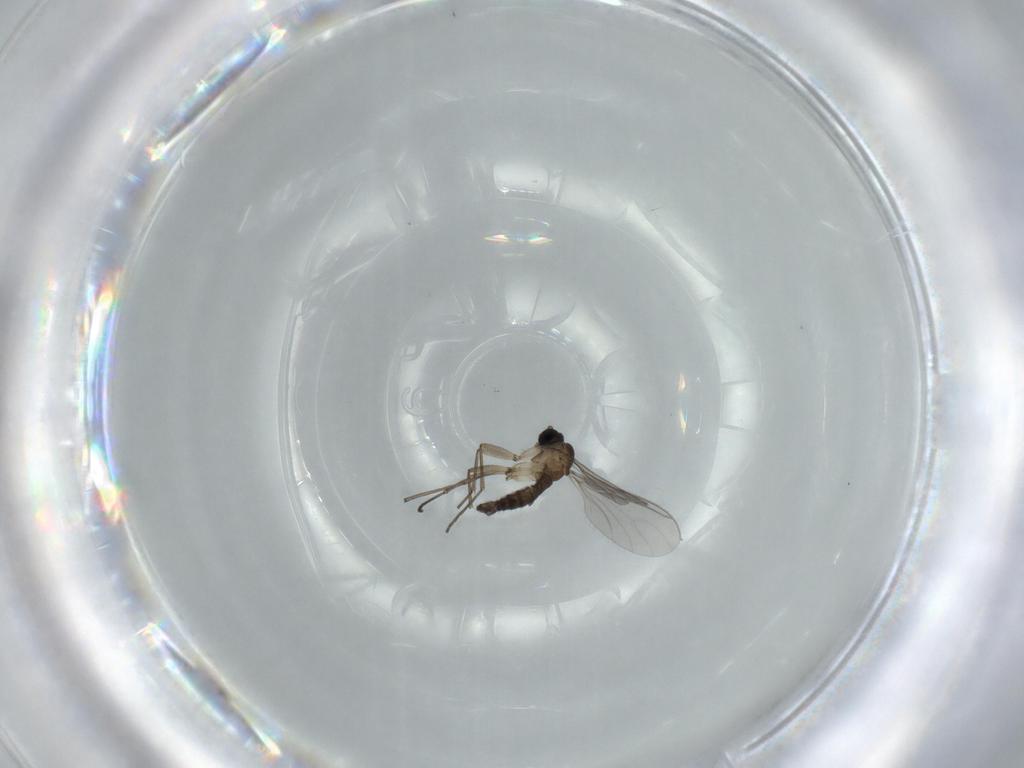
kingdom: Animalia
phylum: Arthropoda
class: Insecta
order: Diptera
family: Sciaridae
